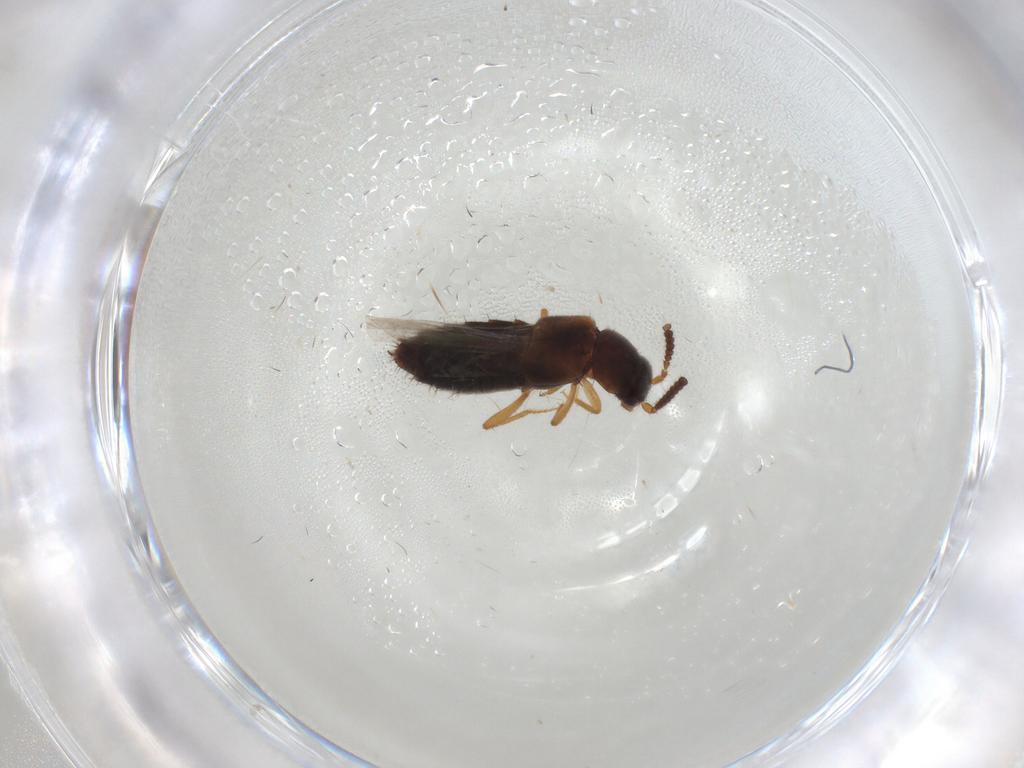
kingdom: Animalia
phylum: Arthropoda
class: Insecta
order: Coleoptera
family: Staphylinidae
